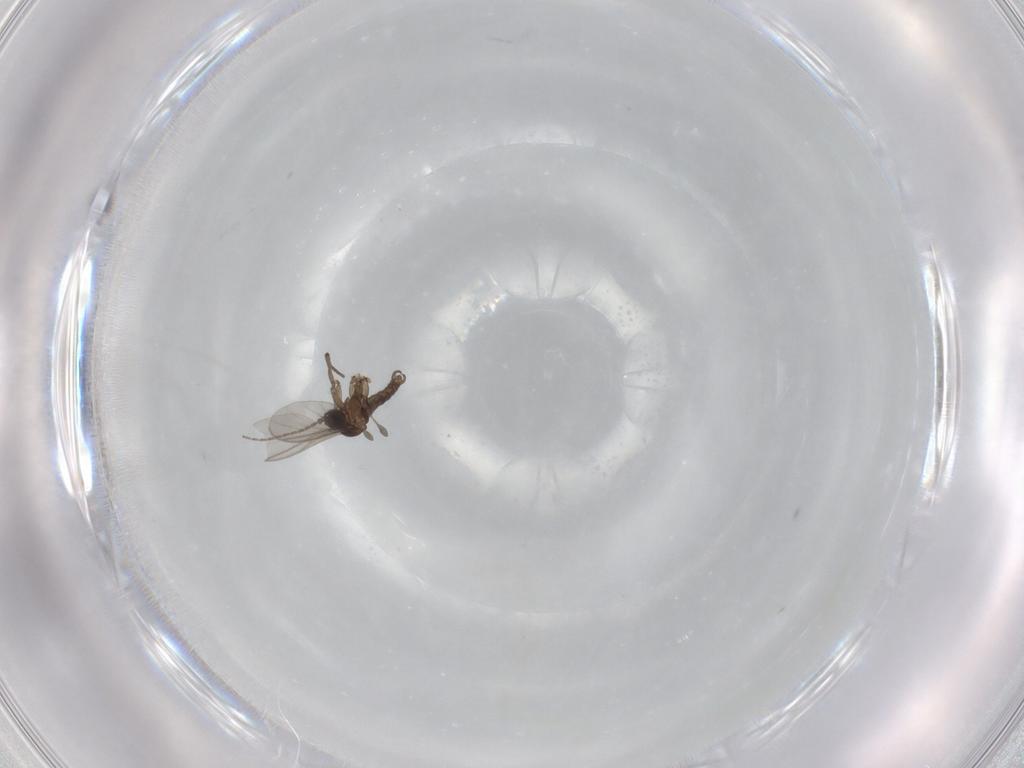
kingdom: Animalia
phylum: Arthropoda
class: Insecta
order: Diptera
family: Sciaridae
